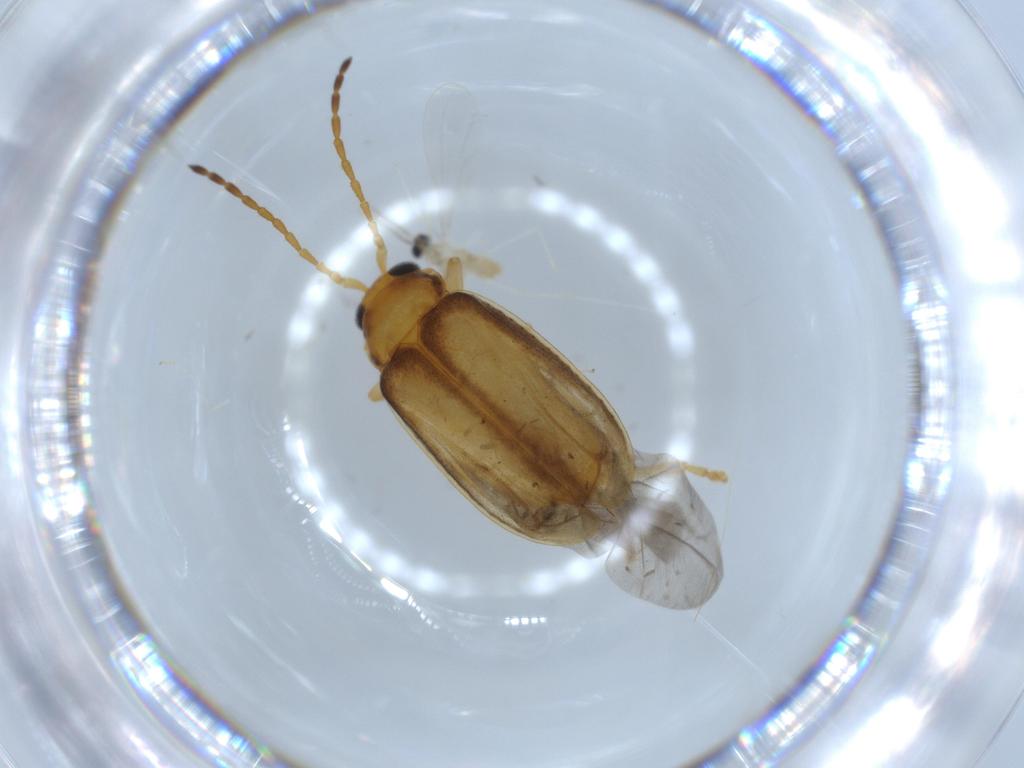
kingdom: Animalia
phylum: Arthropoda
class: Insecta
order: Coleoptera
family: Chrysomelidae
